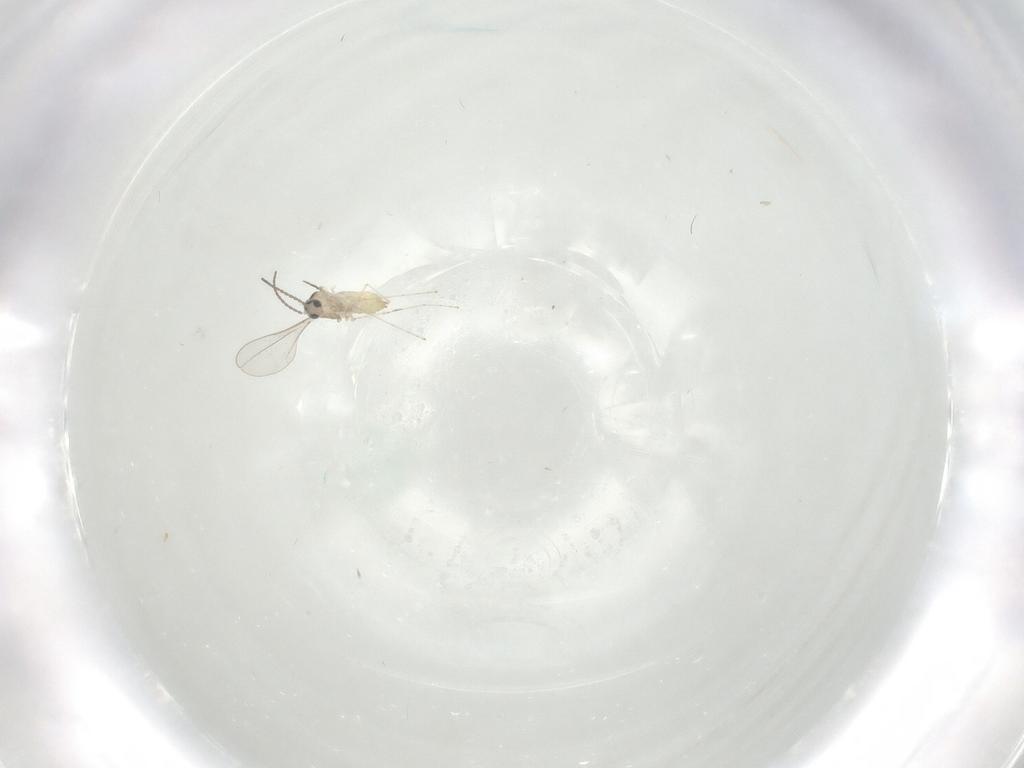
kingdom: Animalia
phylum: Arthropoda
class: Insecta
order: Diptera
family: Cecidomyiidae
